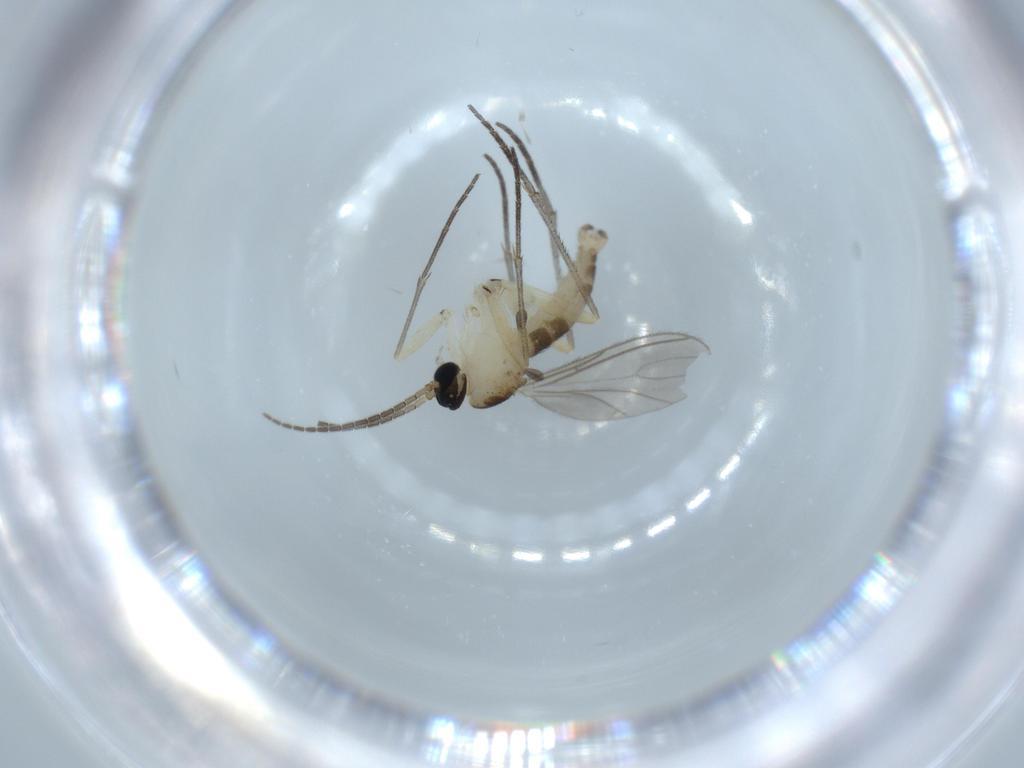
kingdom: Animalia
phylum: Arthropoda
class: Insecta
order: Diptera
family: Sciaridae
